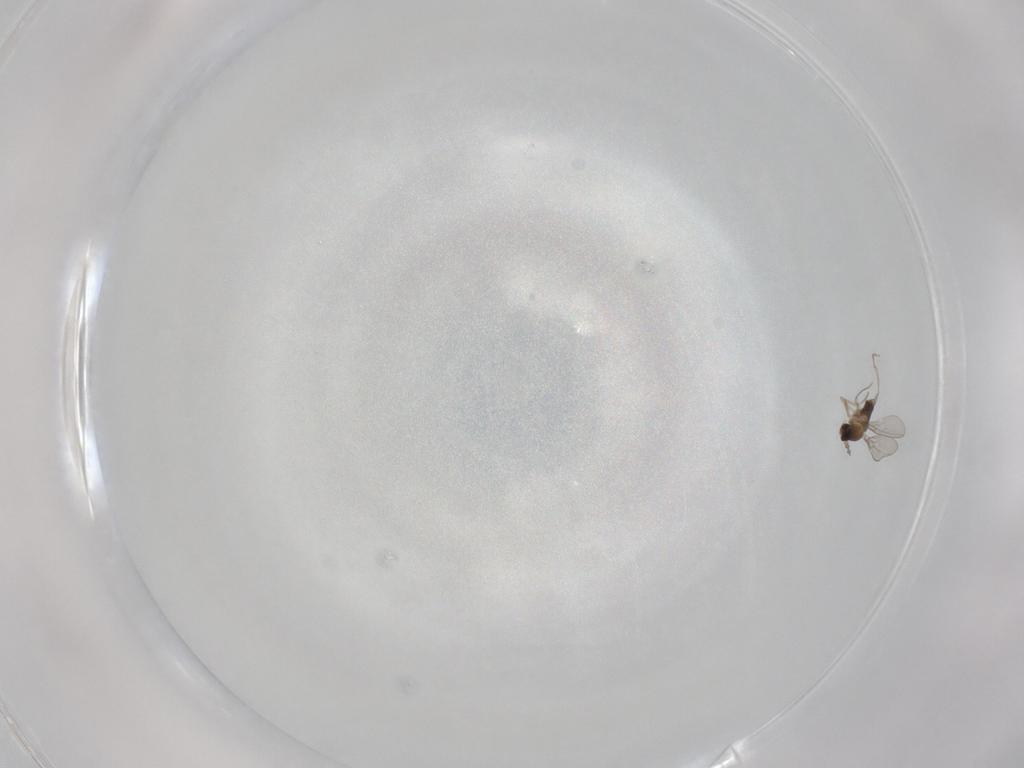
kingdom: Animalia
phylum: Arthropoda
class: Insecta
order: Diptera
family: Cecidomyiidae
